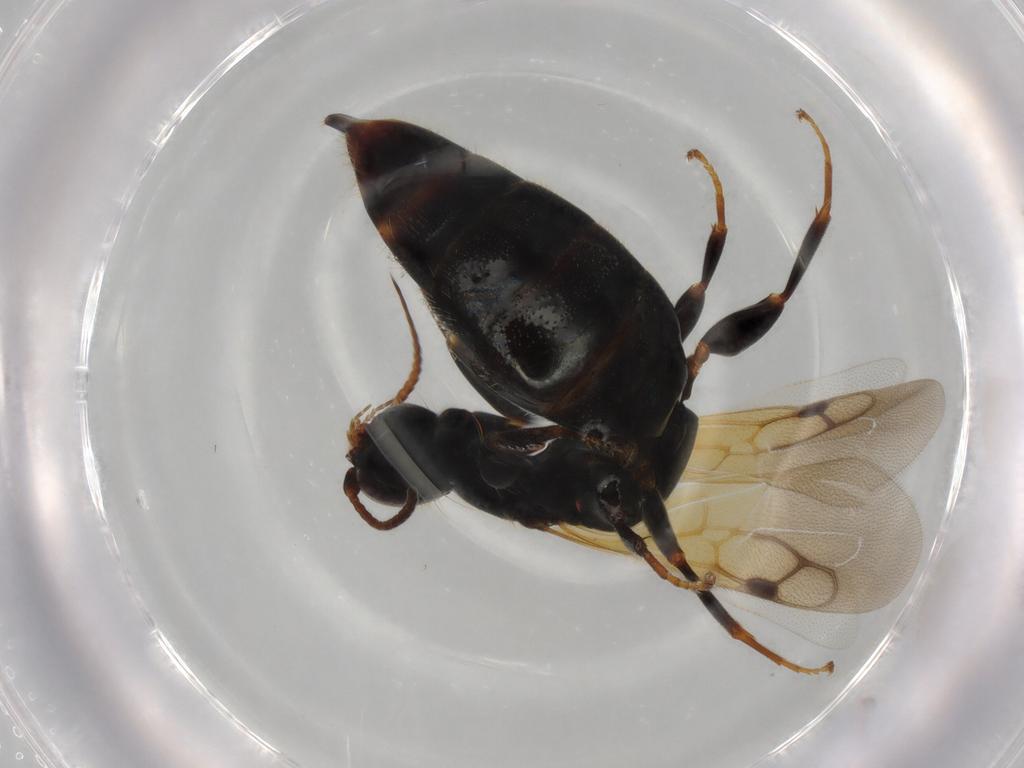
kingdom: Animalia
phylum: Arthropoda
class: Insecta
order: Hymenoptera
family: Bethylidae
